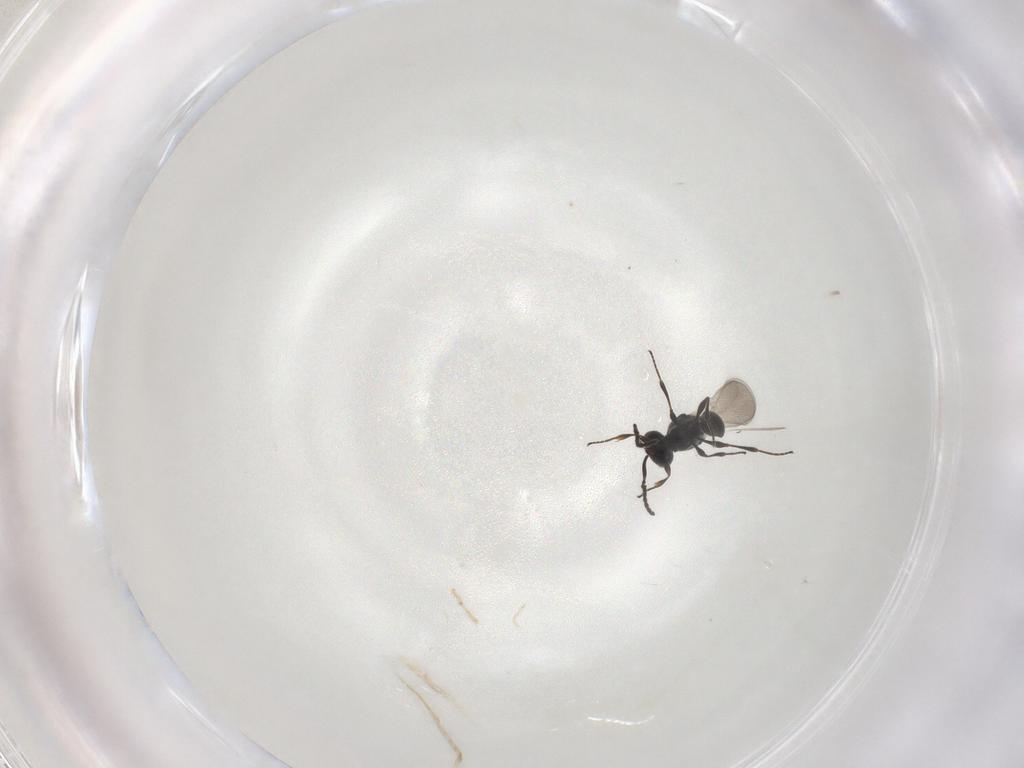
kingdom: Animalia
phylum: Arthropoda
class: Insecta
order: Hymenoptera
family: Platygastridae
